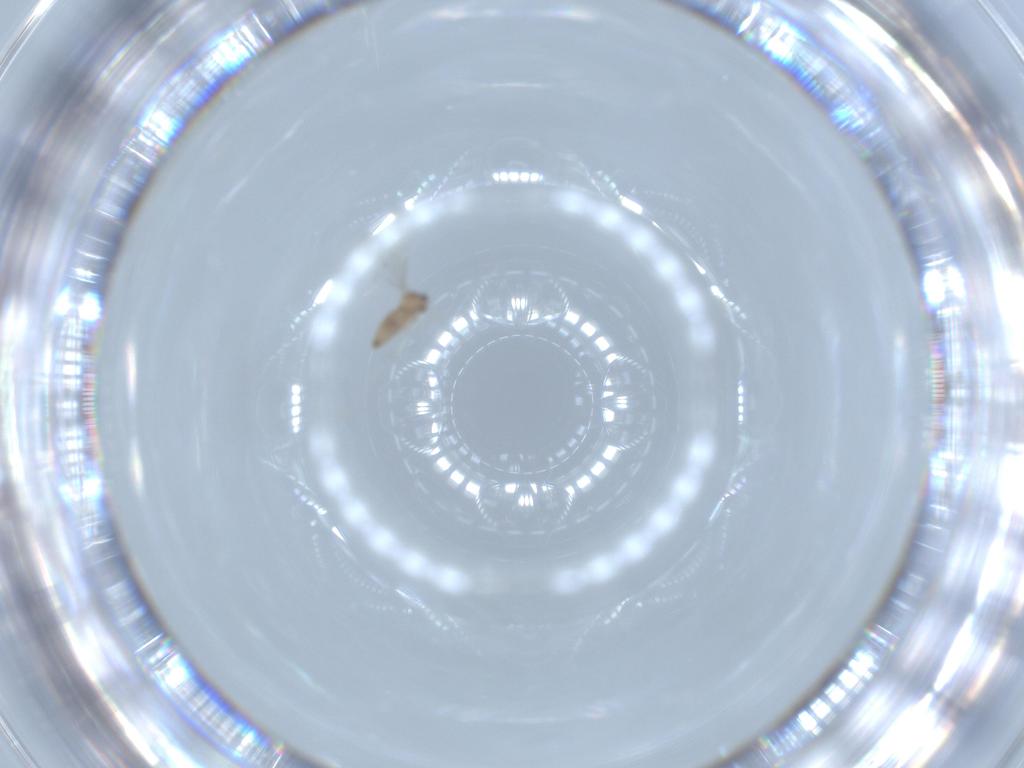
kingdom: Animalia
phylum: Arthropoda
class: Insecta
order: Diptera
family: Cecidomyiidae
